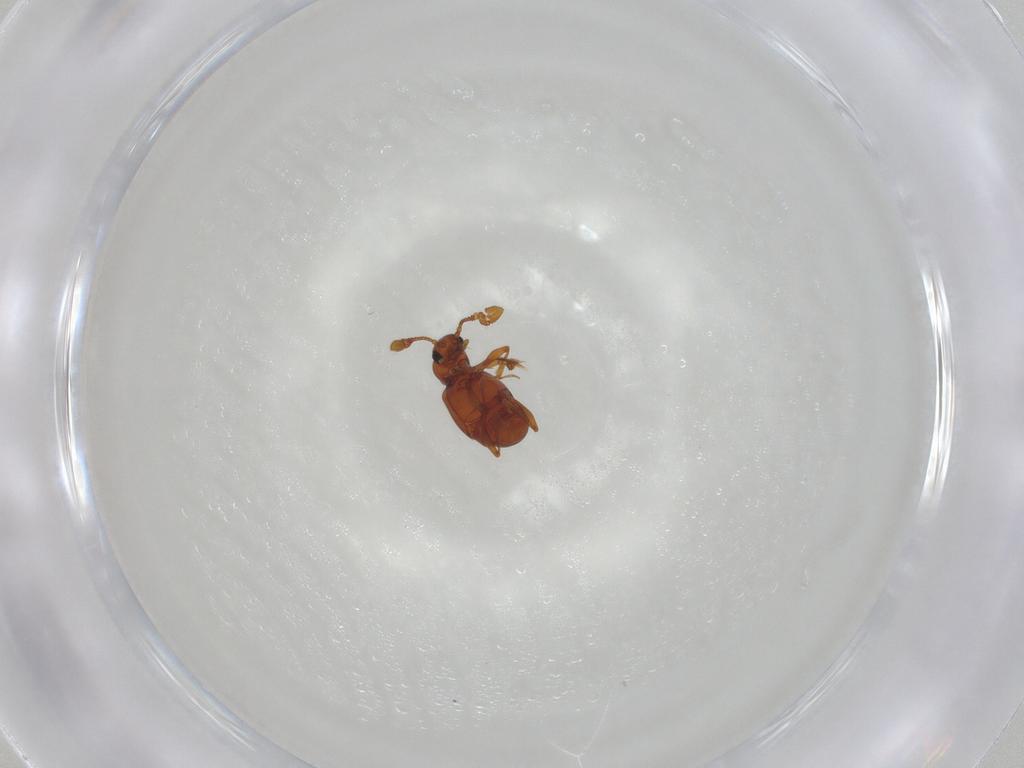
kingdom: Animalia
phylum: Arthropoda
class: Insecta
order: Coleoptera
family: Staphylinidae
